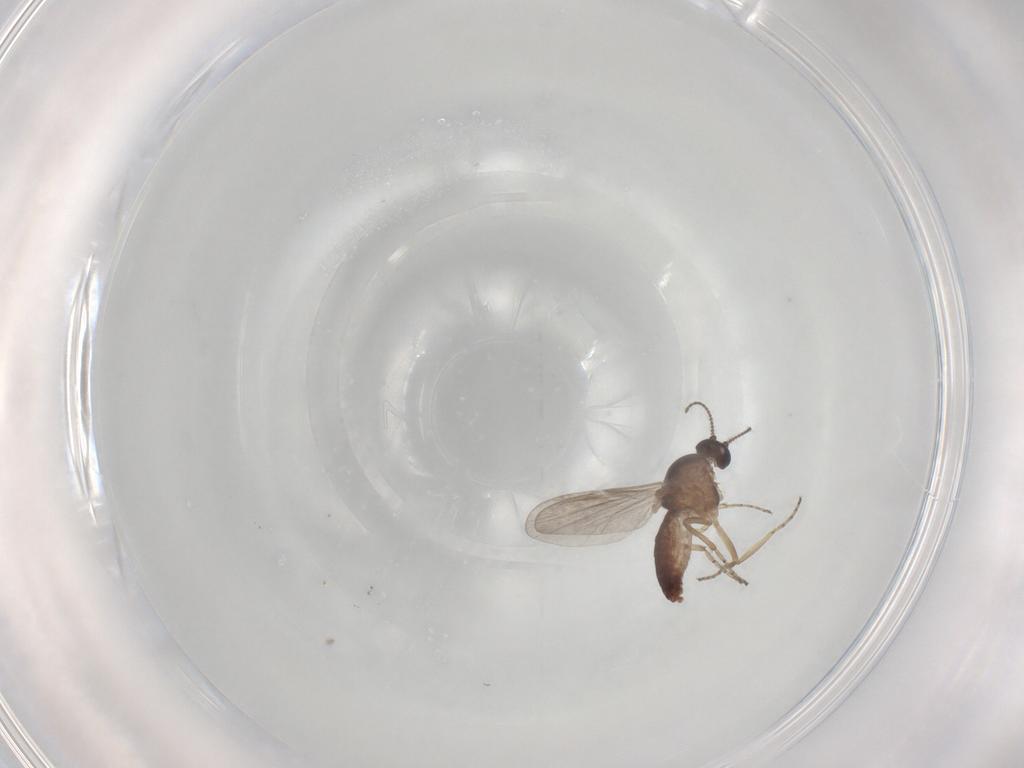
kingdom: Animalia
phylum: Arthropoda
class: Insecta
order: Diptera
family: Ceratopogonidae
